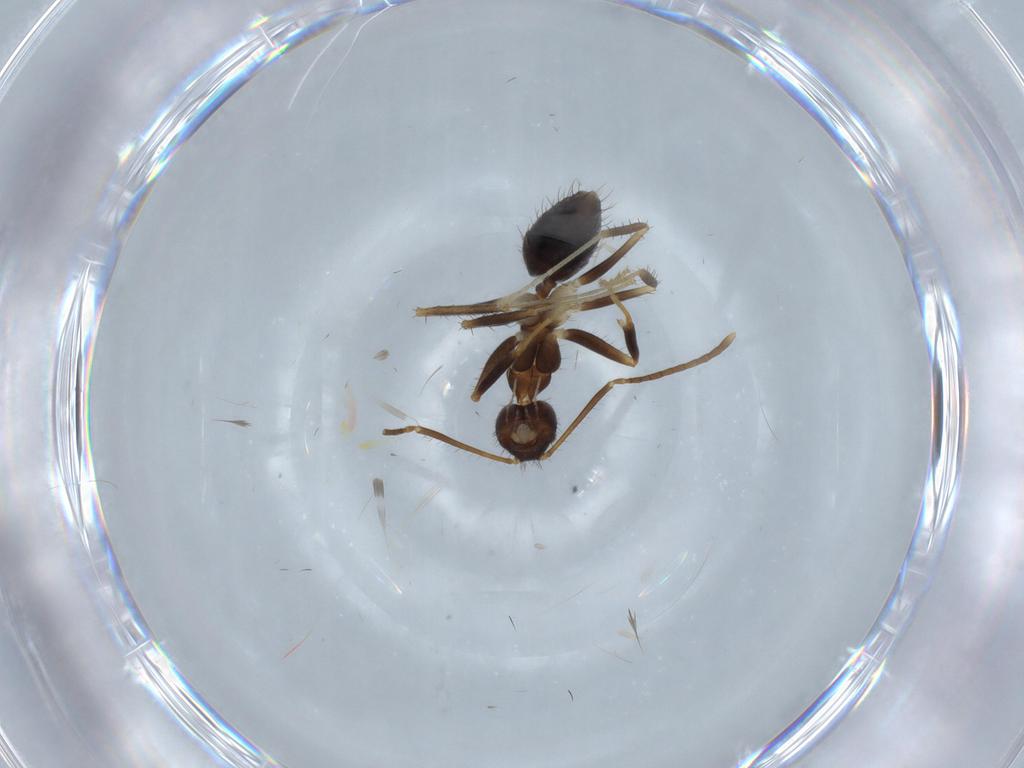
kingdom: Animalia
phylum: Arthropoda
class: Insecta
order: Hymenoptera
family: Formicidae
